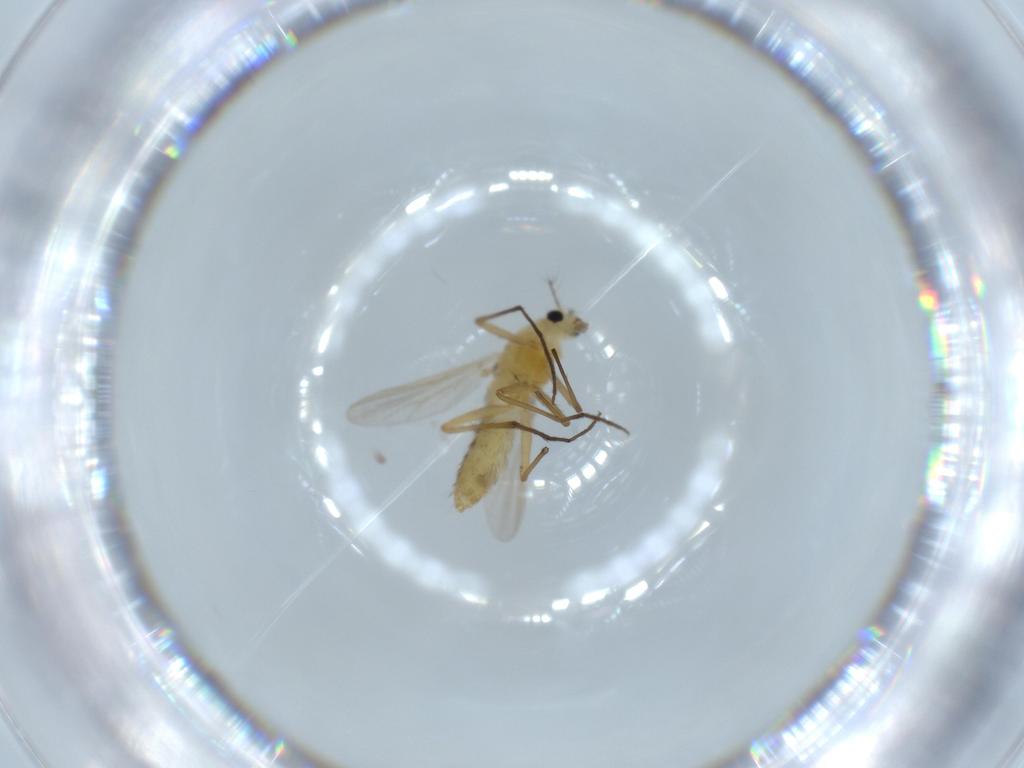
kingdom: Animalia
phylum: Arthropoda
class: Insecta
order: Diptera
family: Chironomidae
